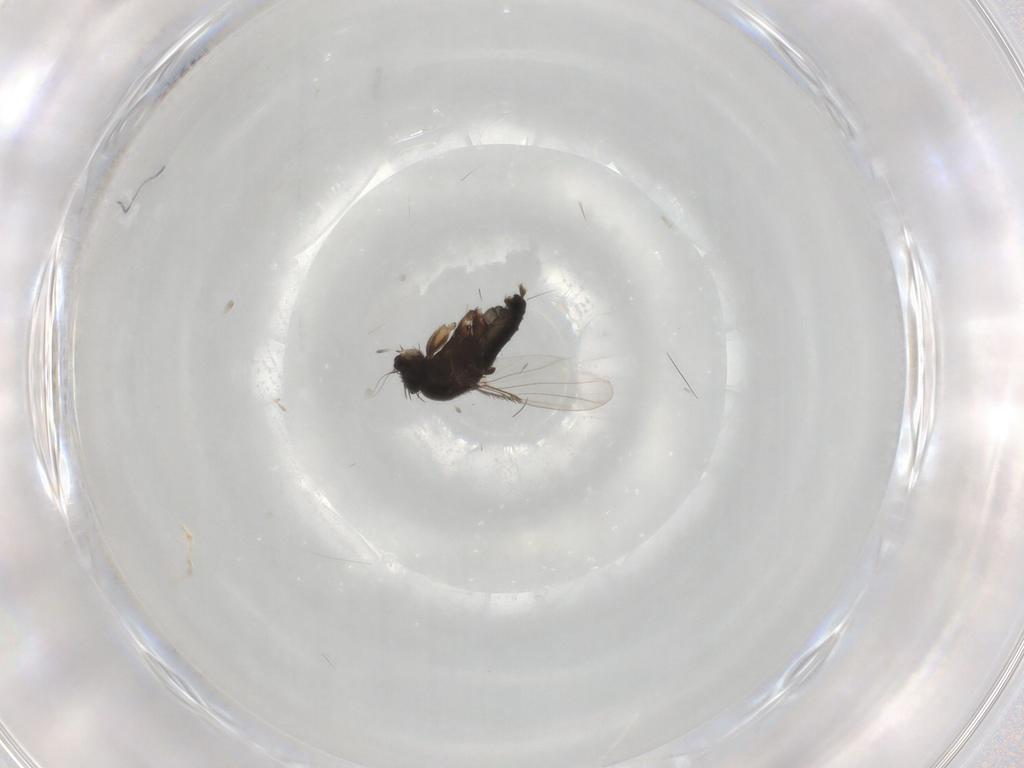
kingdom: Animalia
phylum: Arthropoda
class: Insecta
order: Diptera
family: Phoridae
